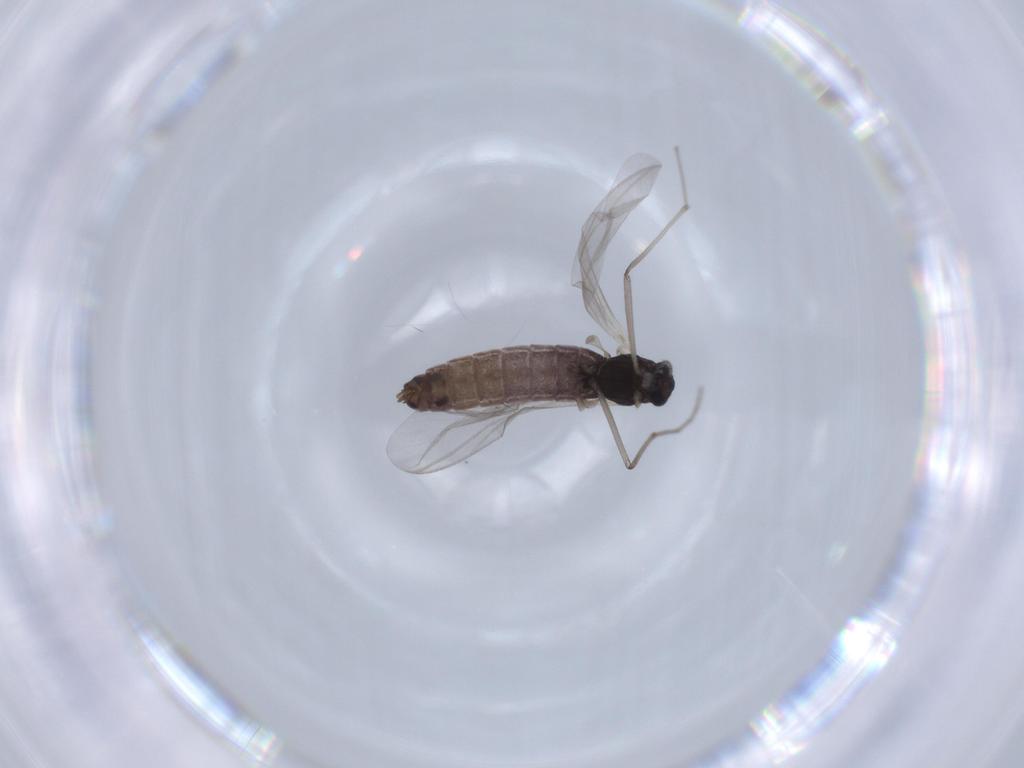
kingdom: Animalia
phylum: Arthropoda
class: Insecta
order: Diptera
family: Chironomidae
